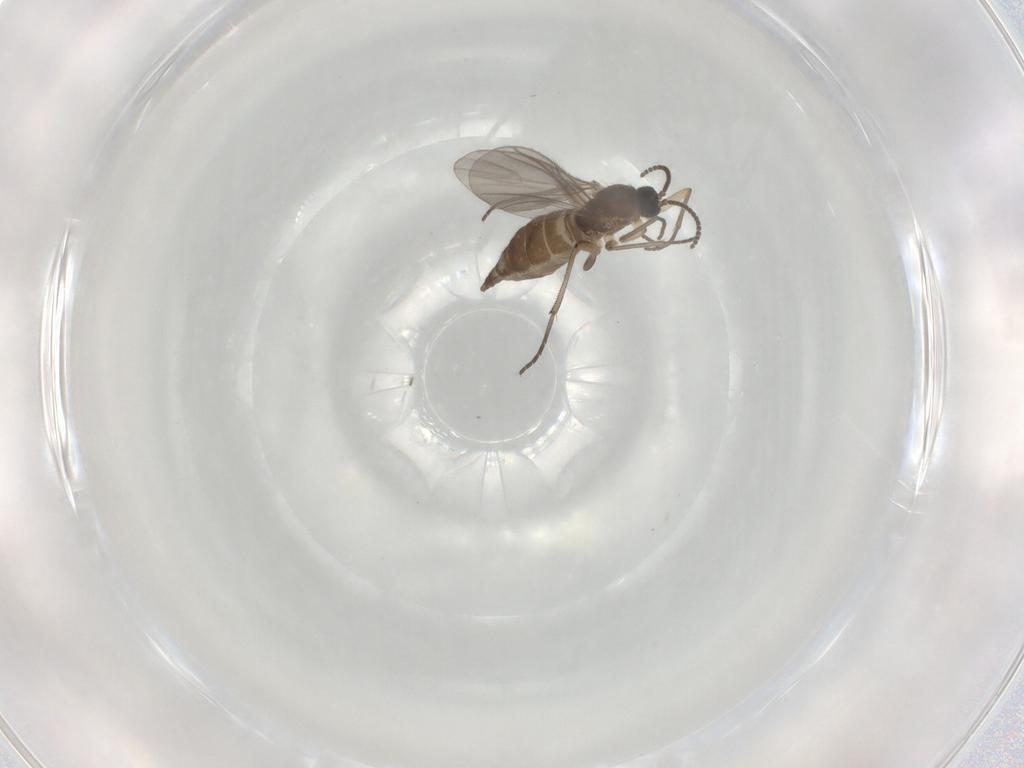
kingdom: Animalia
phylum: Arthropoda
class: Insecta
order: Diptera
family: Sciaridae
